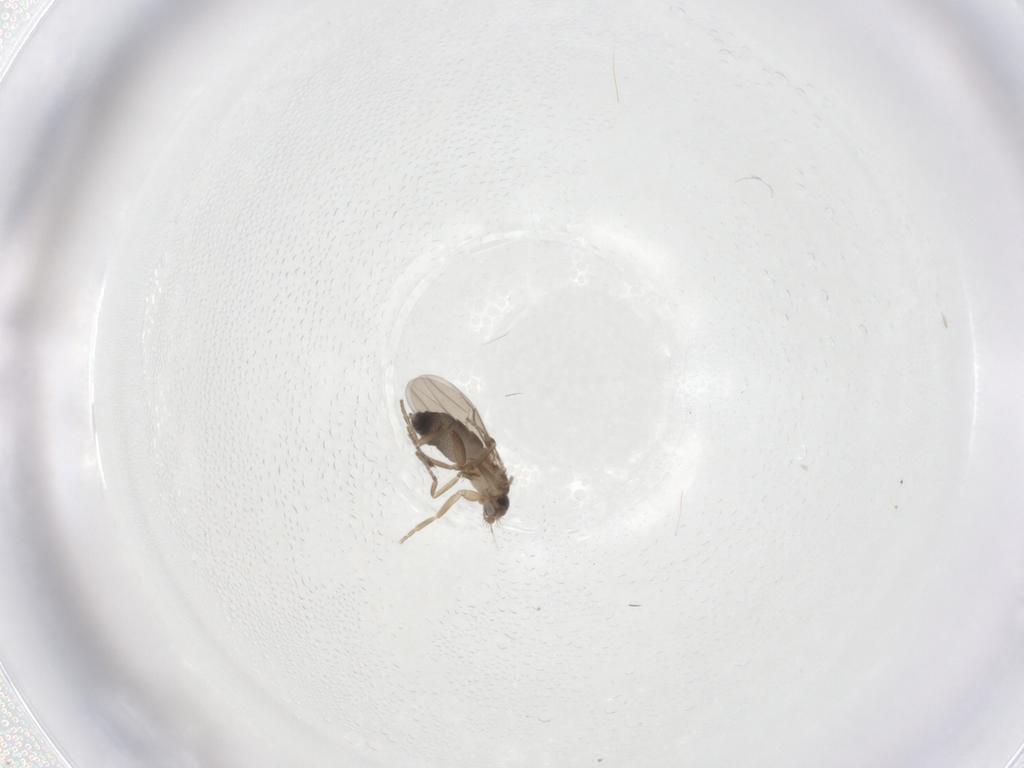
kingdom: Animalia
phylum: Arthropoda
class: Insecta
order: Diptera
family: Phoridae
